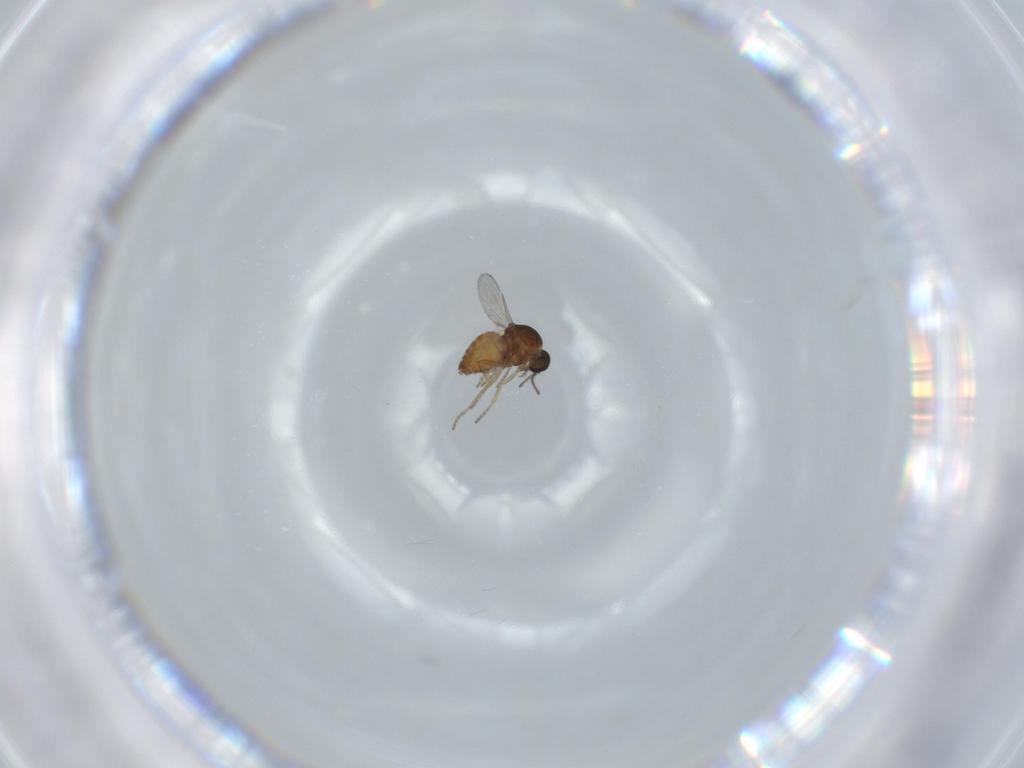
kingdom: Animalia
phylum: Arthropoda
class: Insecta
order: Diptera
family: Ceratopogonidae
